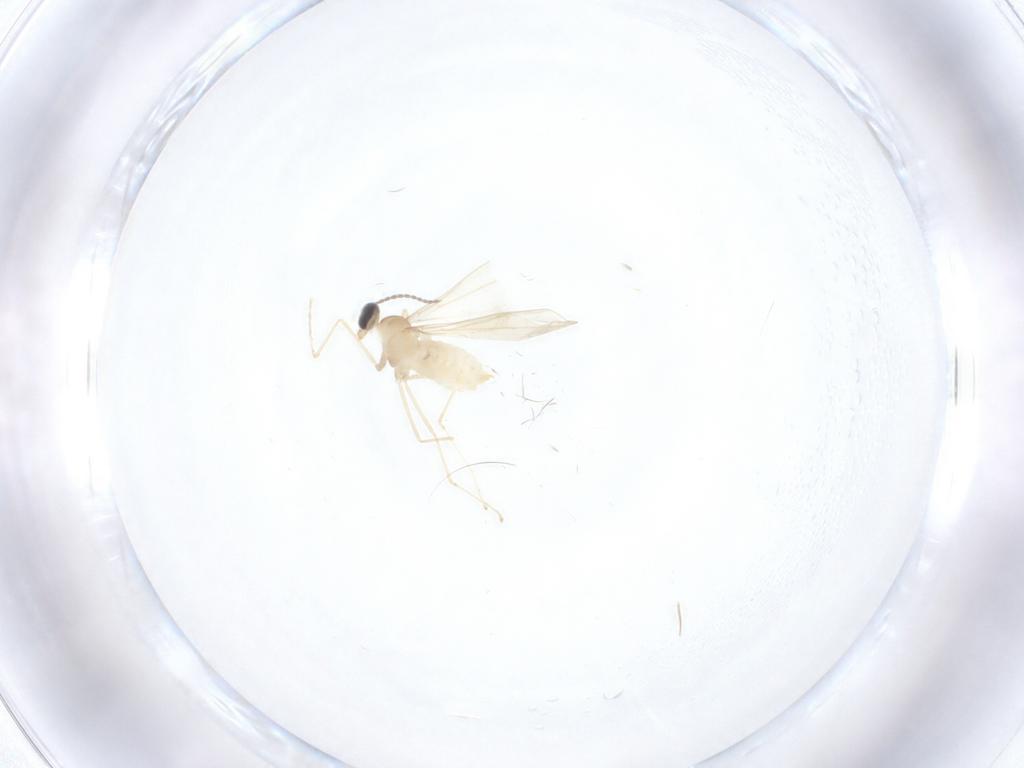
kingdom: Animalia
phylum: Arthropoda
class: Insecta
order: Diptera
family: Cecidomyiidae
